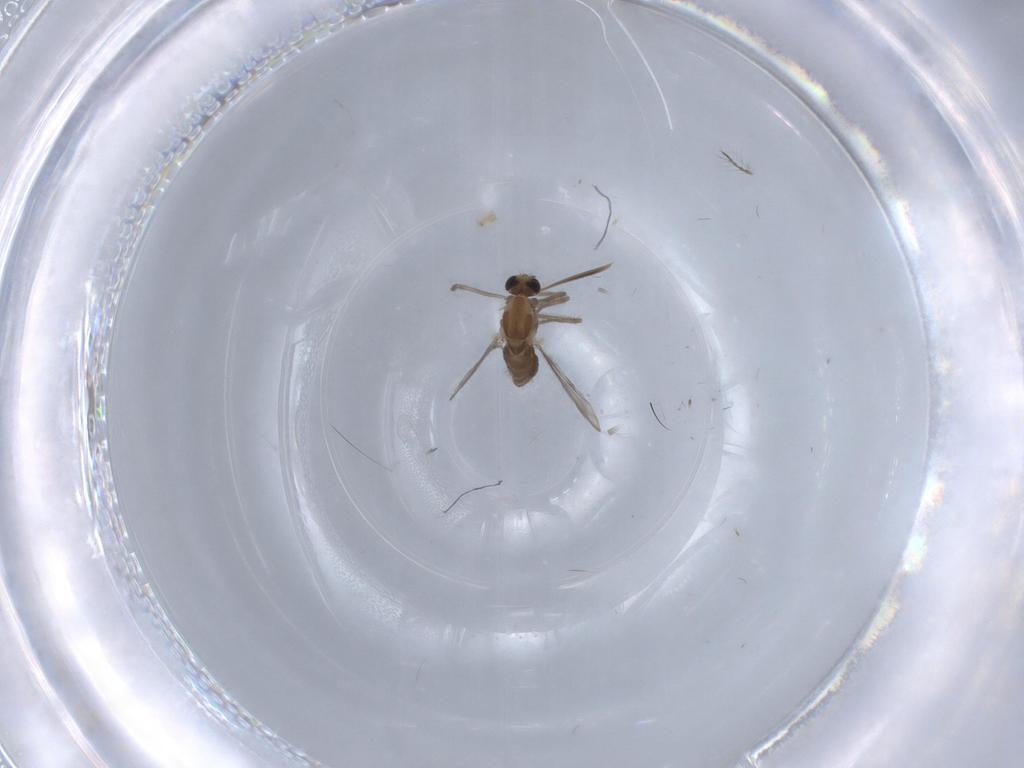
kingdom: Animalia
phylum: Arthropoda
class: Insecta
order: Diptera
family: Chironomidae
